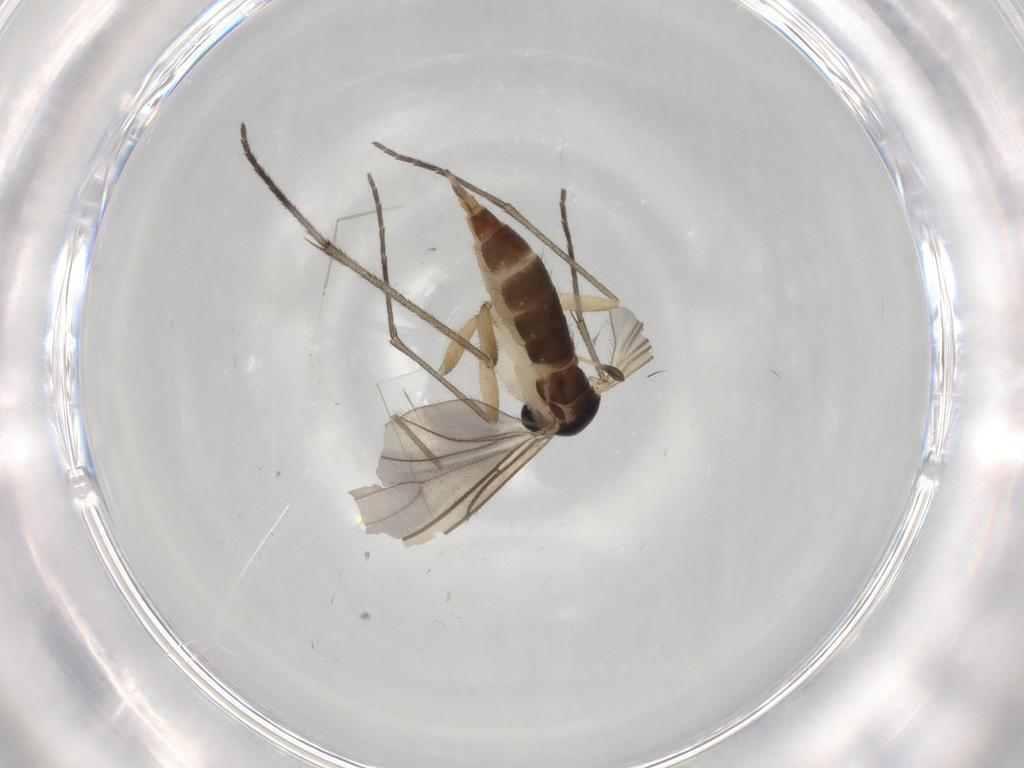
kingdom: Animalia
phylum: Arthropoda
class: Insecta
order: Diptera
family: Sciaridae
